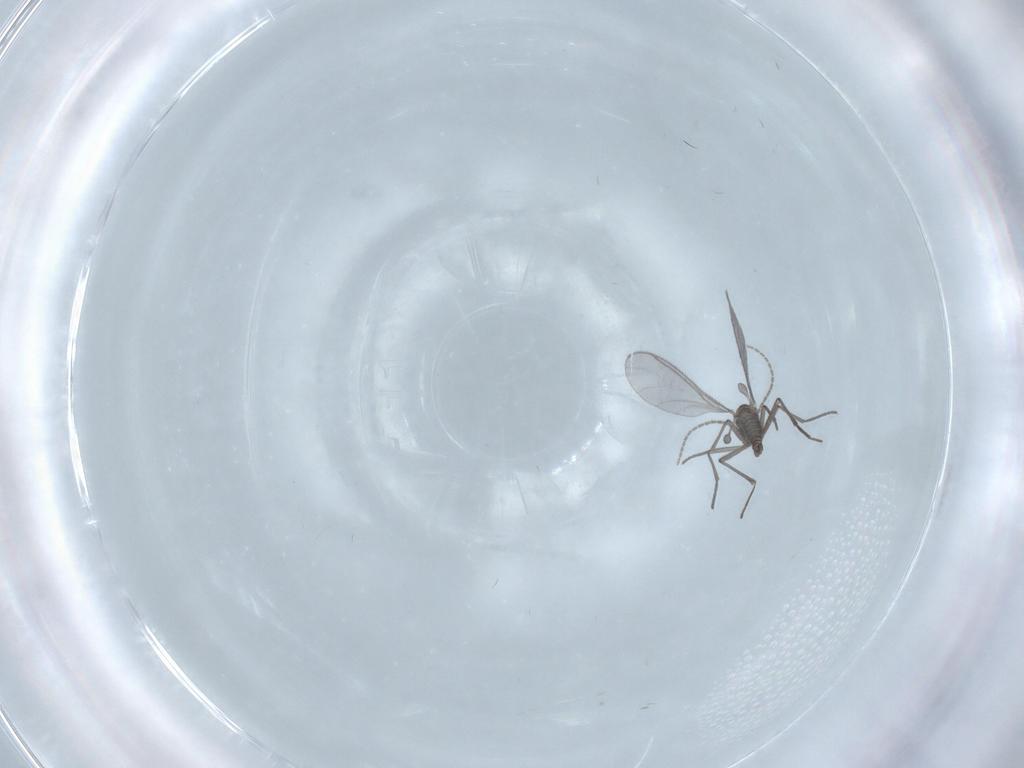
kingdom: Animalia
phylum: Arthropoda
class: Insecta
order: Diptera
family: Sciaridae
